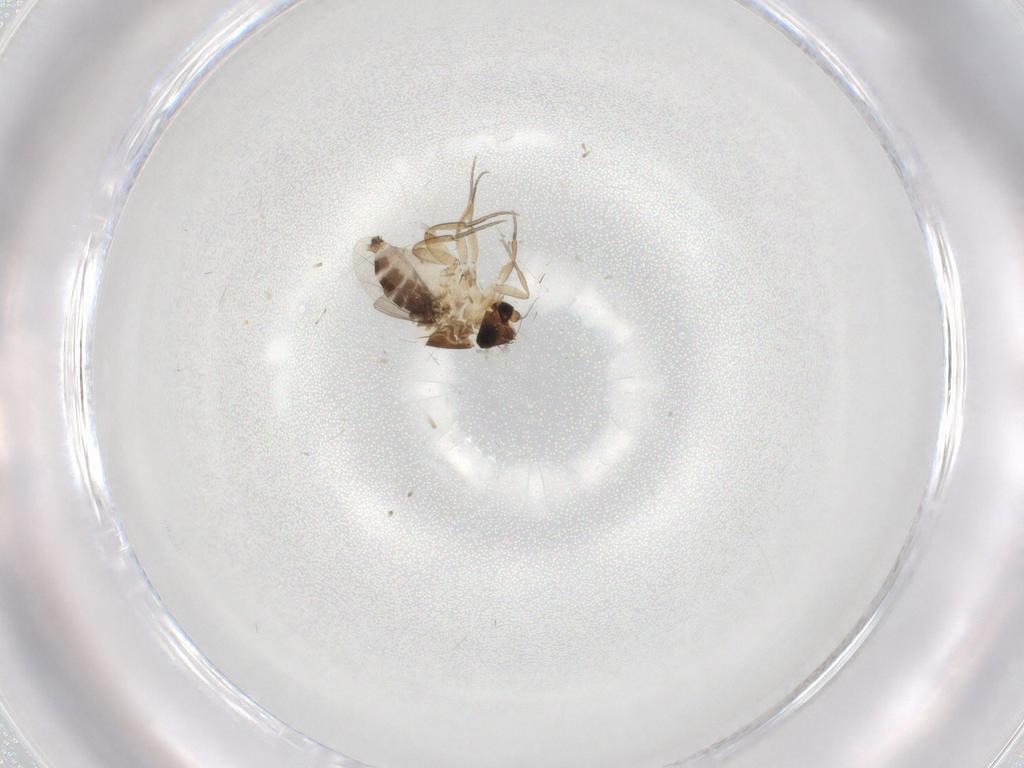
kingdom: Animalia
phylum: Arthropoda
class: Insecta
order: Diptera
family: Phoridae
